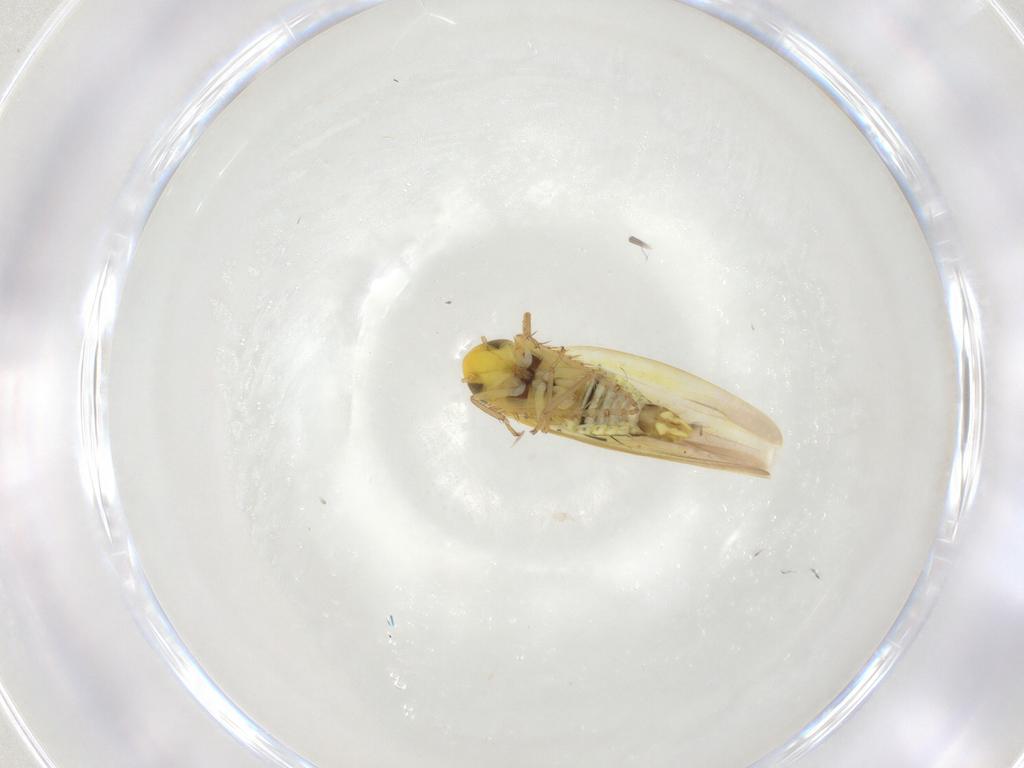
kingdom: Animalia
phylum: Arthropoda
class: Insecta
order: Hemiptera
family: Cicadellidae
